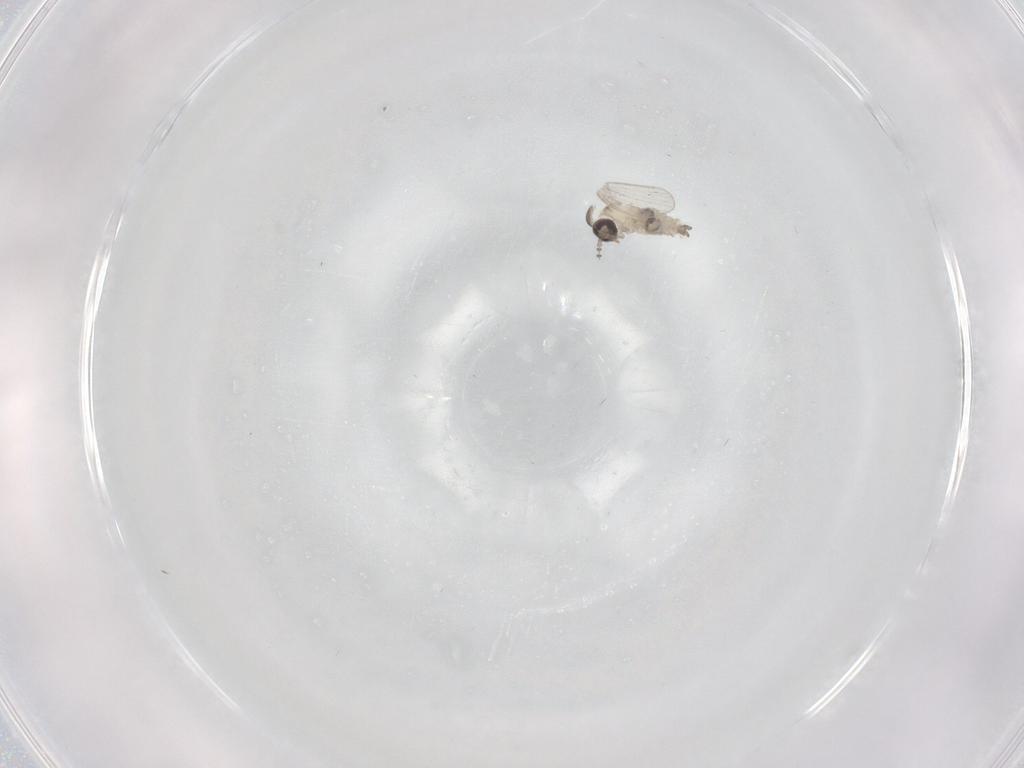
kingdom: Animalia
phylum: Arthropoda
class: Insecta
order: Diptera
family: Psychodidae
